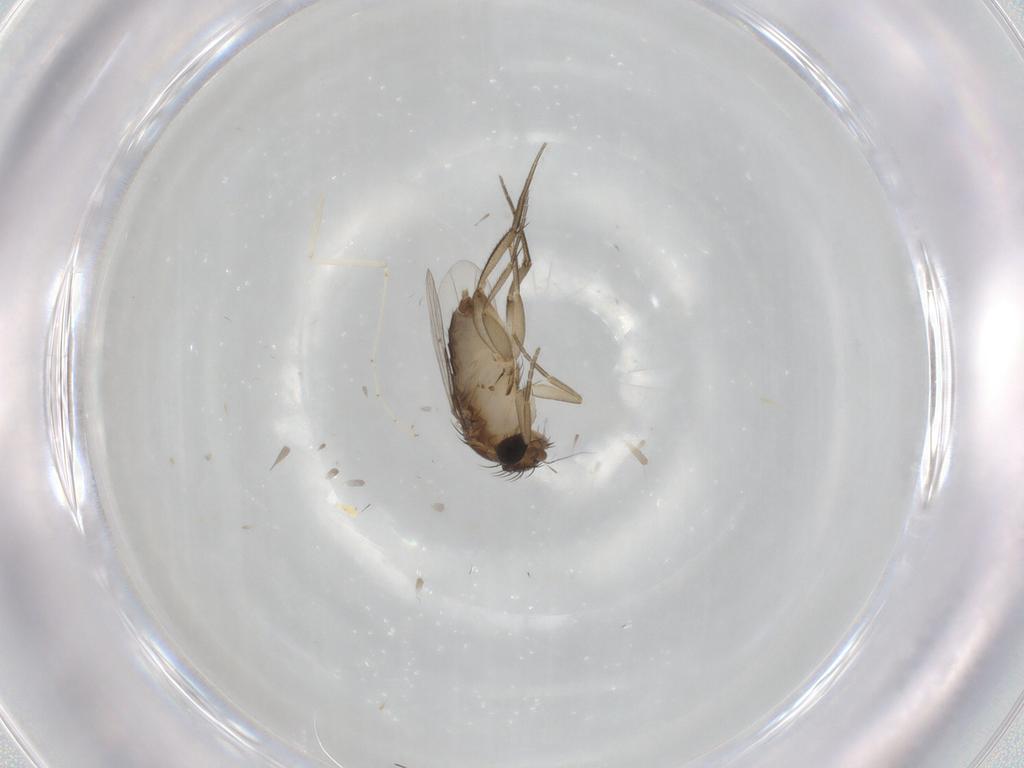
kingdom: Animalia
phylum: Arthropoda
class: Insecta
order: Diptera
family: Phoridae
